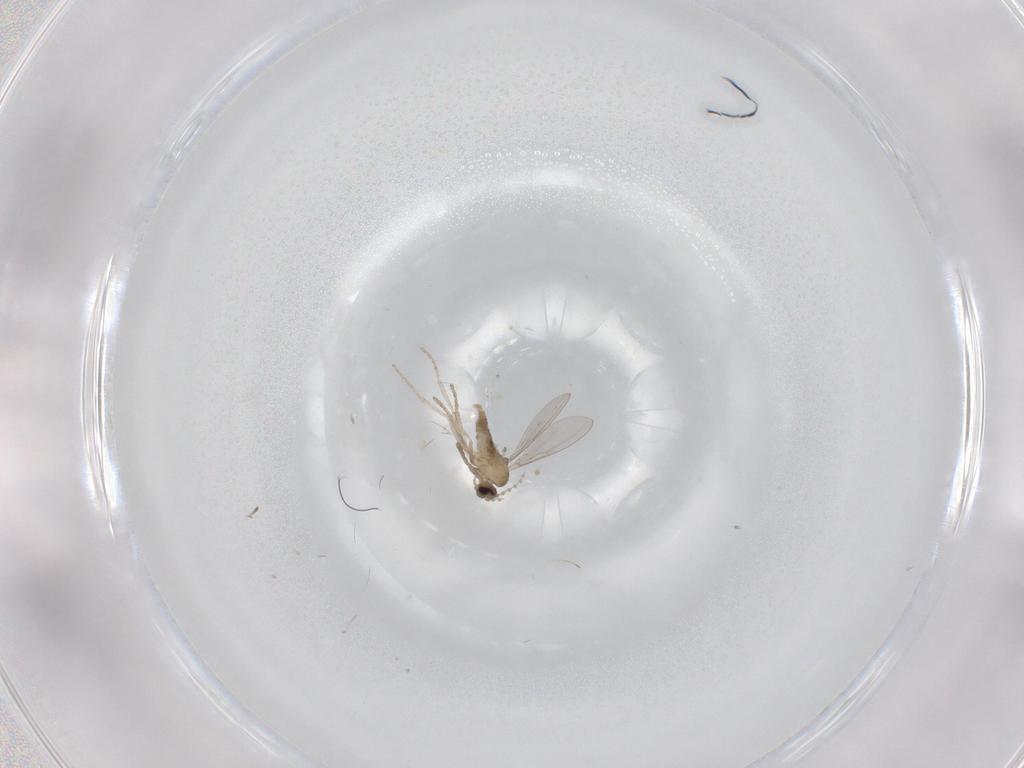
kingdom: Animalia
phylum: Arthropoda
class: Insecta
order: Diptera
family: Cecidomyiidae
